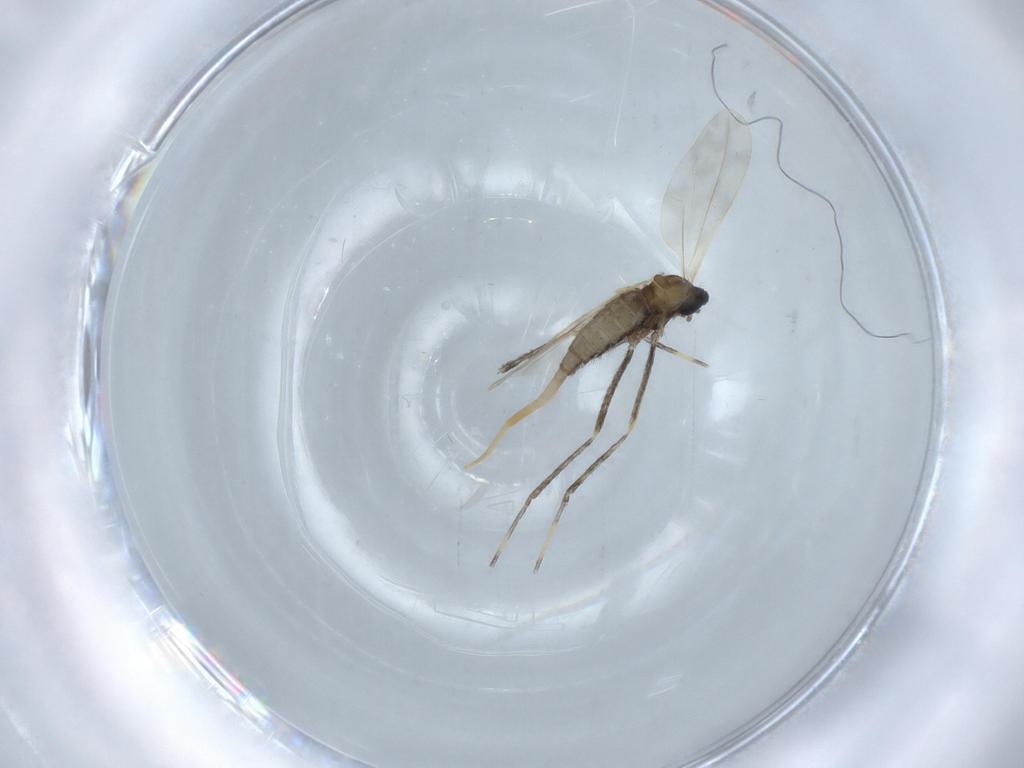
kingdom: Animalia
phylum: Arthropoda
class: Insecta
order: Diptera
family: Cecidomyiidae
